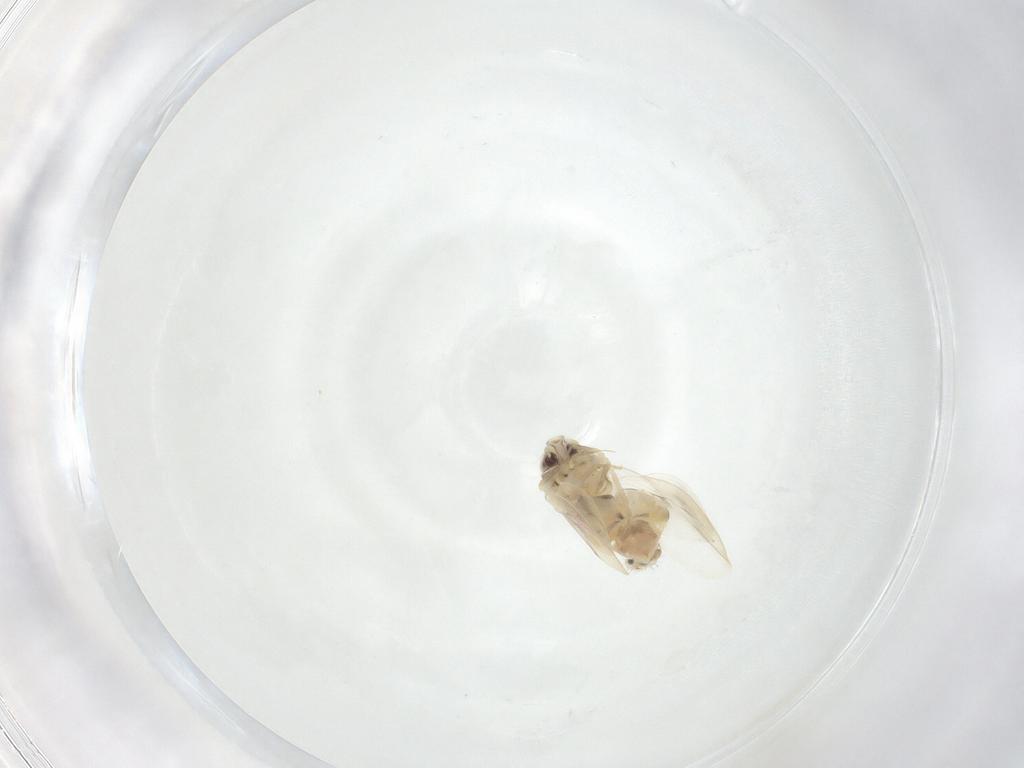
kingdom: Animalia
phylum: Arthropoda
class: Insecta
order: Hemiptera
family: Aleyrodidae
